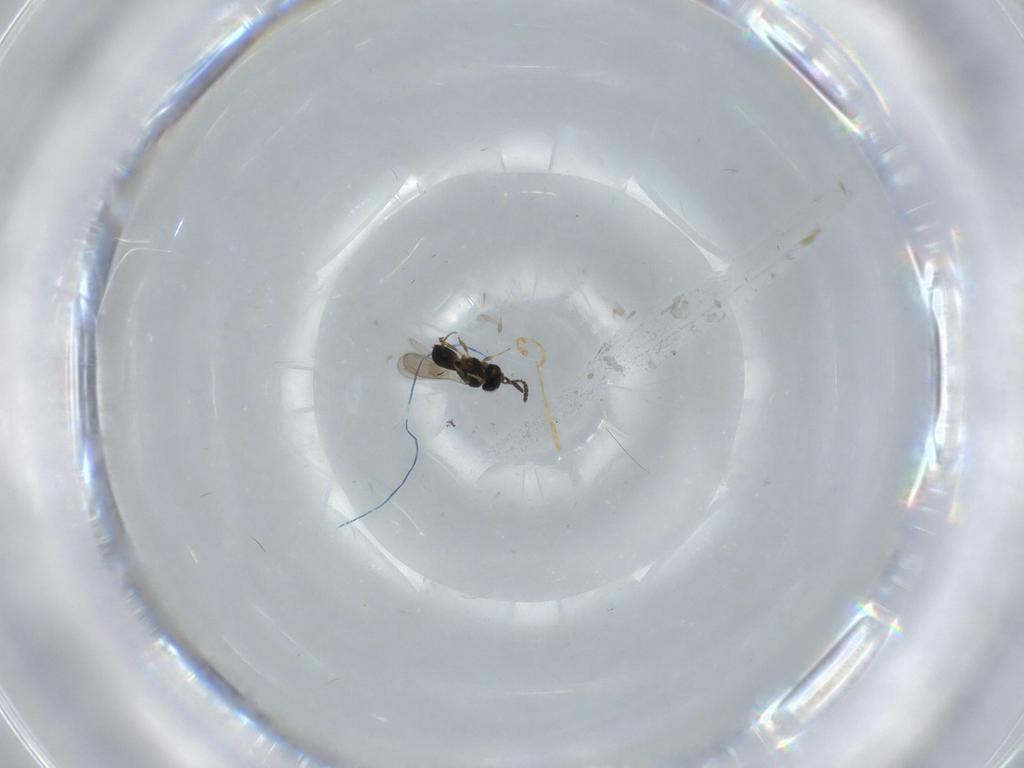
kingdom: Animalia
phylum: Arthropoda
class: Insecta
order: Hymenoptera
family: Scelionidae
